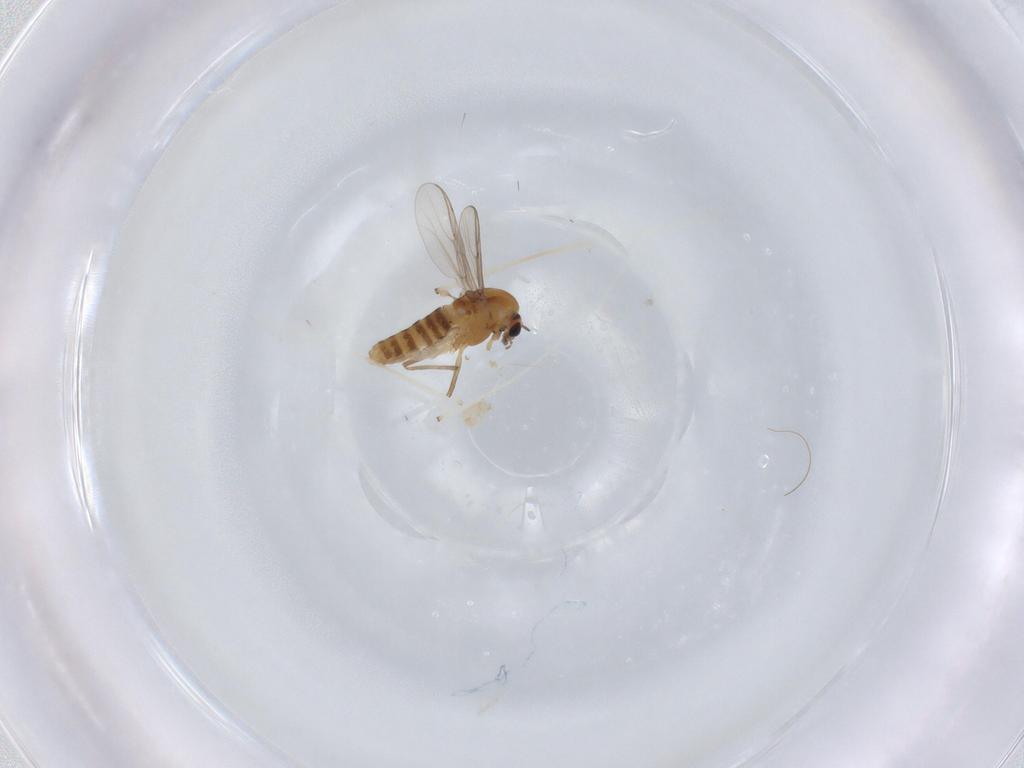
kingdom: Animalia
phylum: Arthropoda
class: Insecta
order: Diptera
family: Chironomidae
